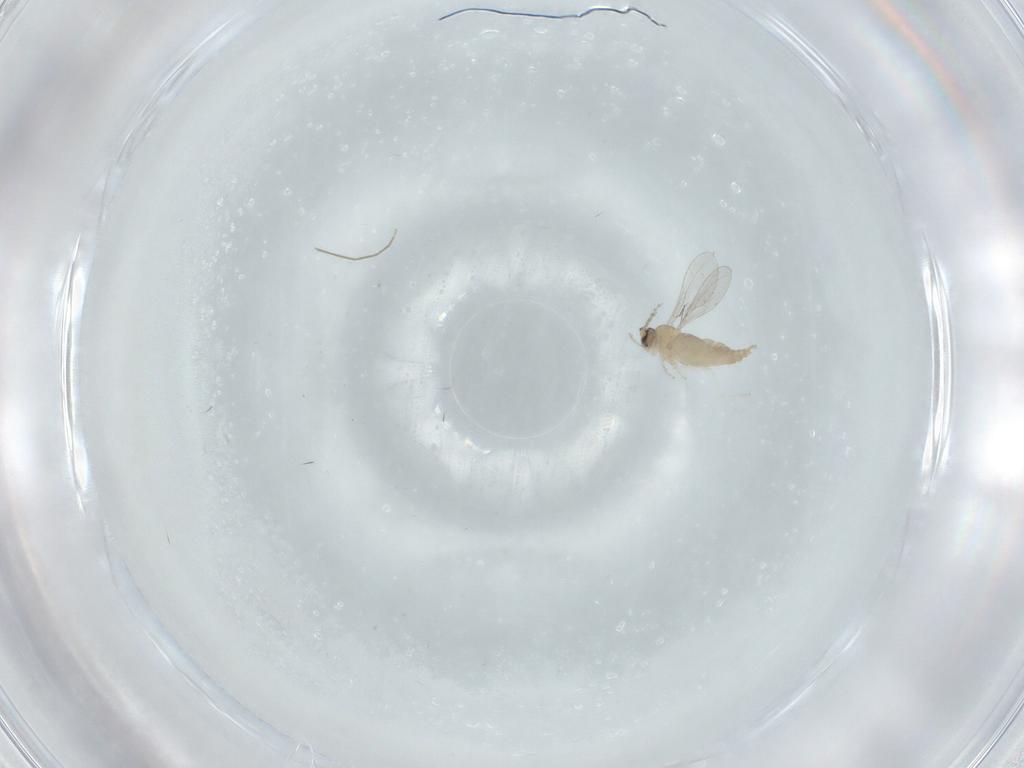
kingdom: Animalia
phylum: Arthropoda
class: Insecta
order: Diptera
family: Cecidomyiidae
